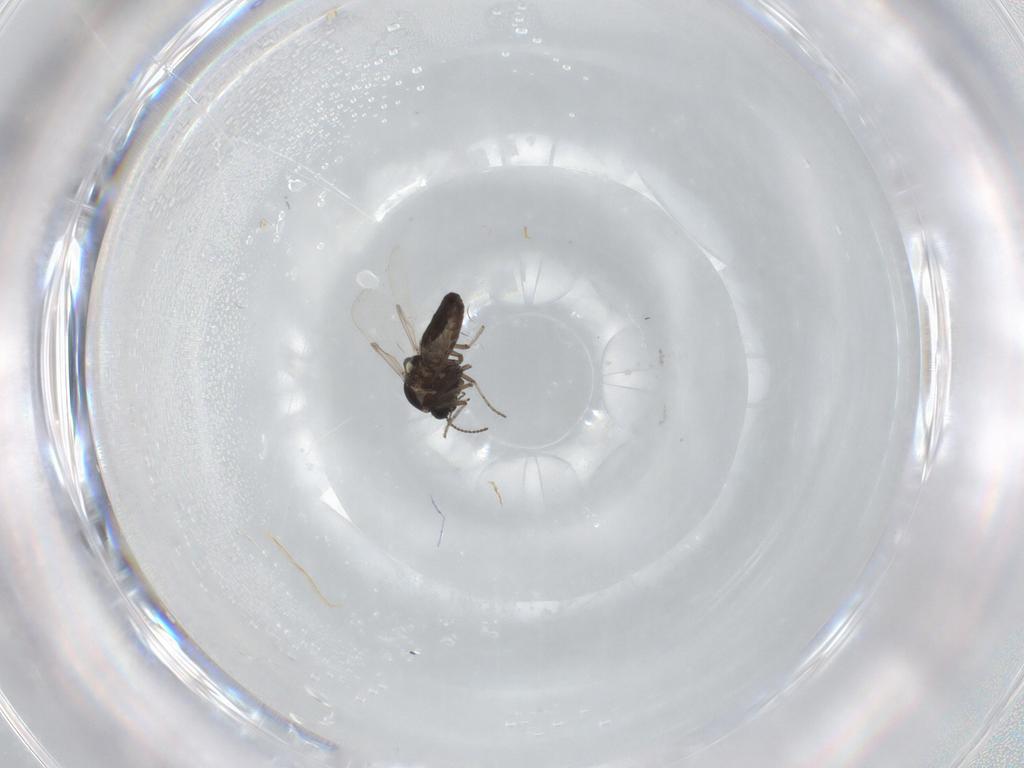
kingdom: Animalia
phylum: Arthropoda
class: Insecta
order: Diptera
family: Ceratopogonidae
